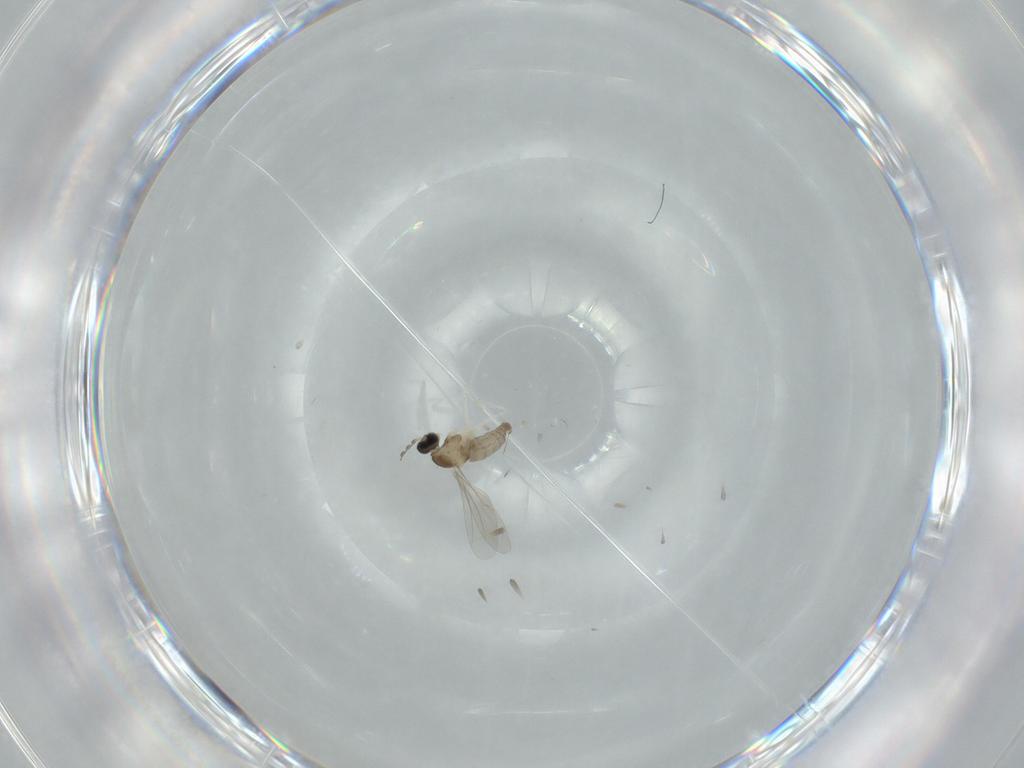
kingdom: Animalia
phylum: Arthropoda
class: Insecta
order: Diptera
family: Cecidomyiidae
